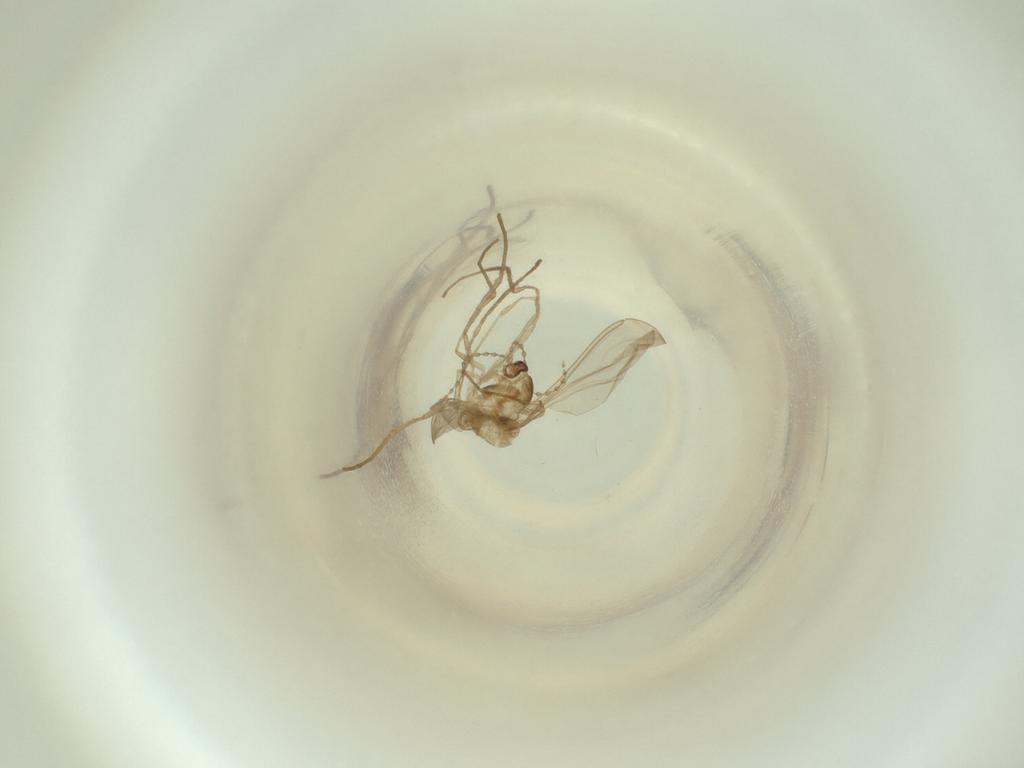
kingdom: Animalia
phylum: Arthropoda
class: Insecta
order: Diptera
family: Cecidomyiidae
